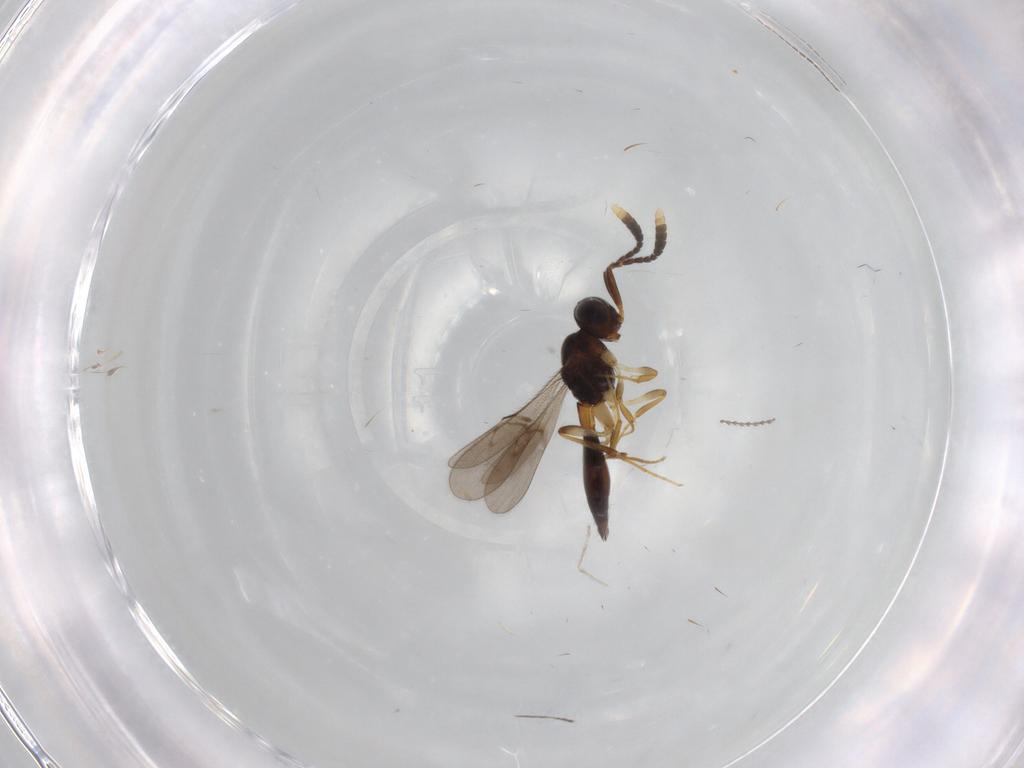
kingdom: Animalia
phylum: Arthropoda
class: Insecta
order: Hymenoptera
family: Scelionidae
